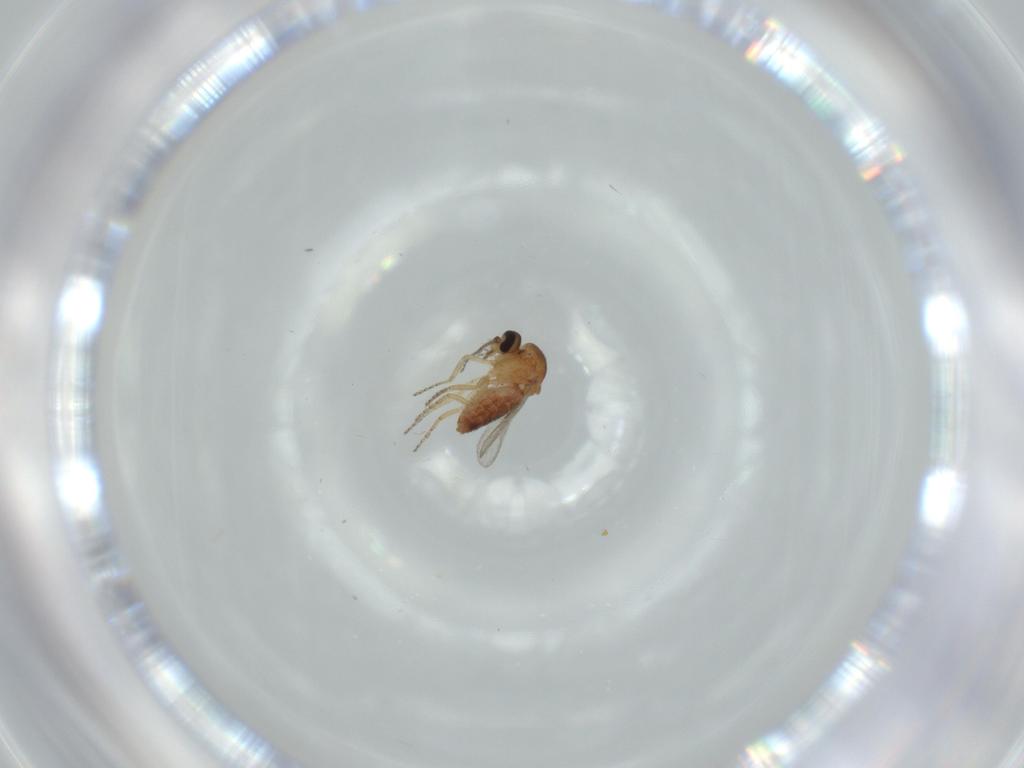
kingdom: Animalia
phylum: Arthropoda
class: Insecta
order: Diptera
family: Ceratopogonidae
